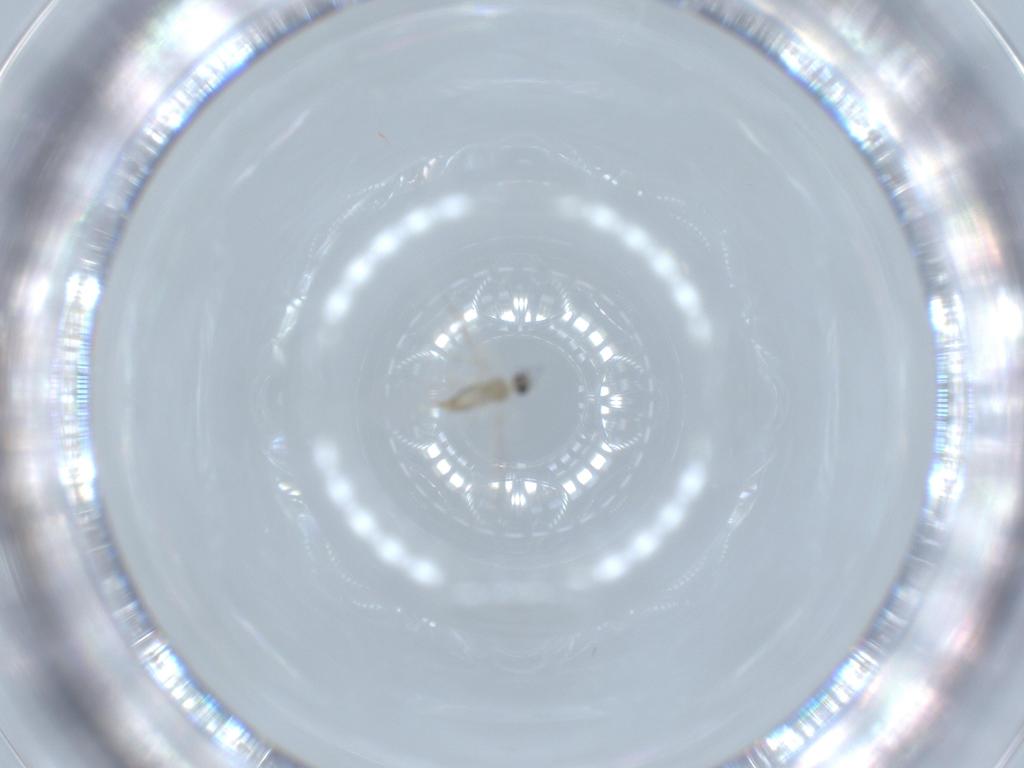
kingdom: Animalia
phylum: Arthropoda
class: Insecta
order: Diptera
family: Cecidomyiidae
